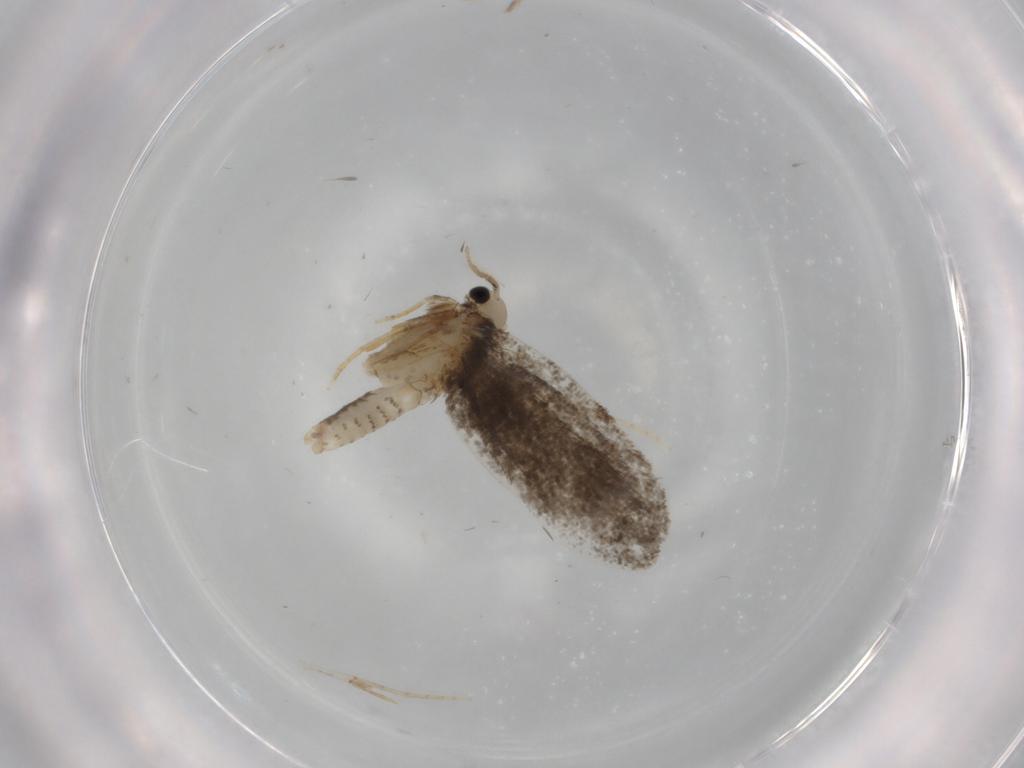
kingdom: Animalia
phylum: Arthropoda
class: Insecta
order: Lepidoptera
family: Psychidae
